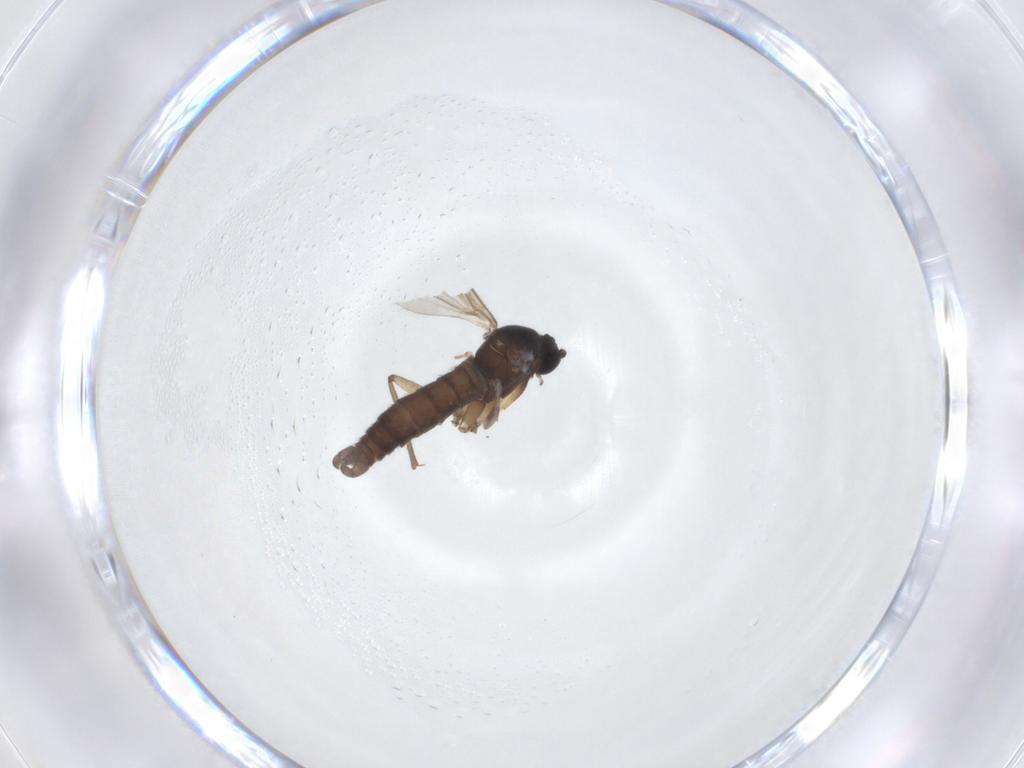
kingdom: Animalia
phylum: Arthropoda
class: Insecta
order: Diptera
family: Sciaridae
